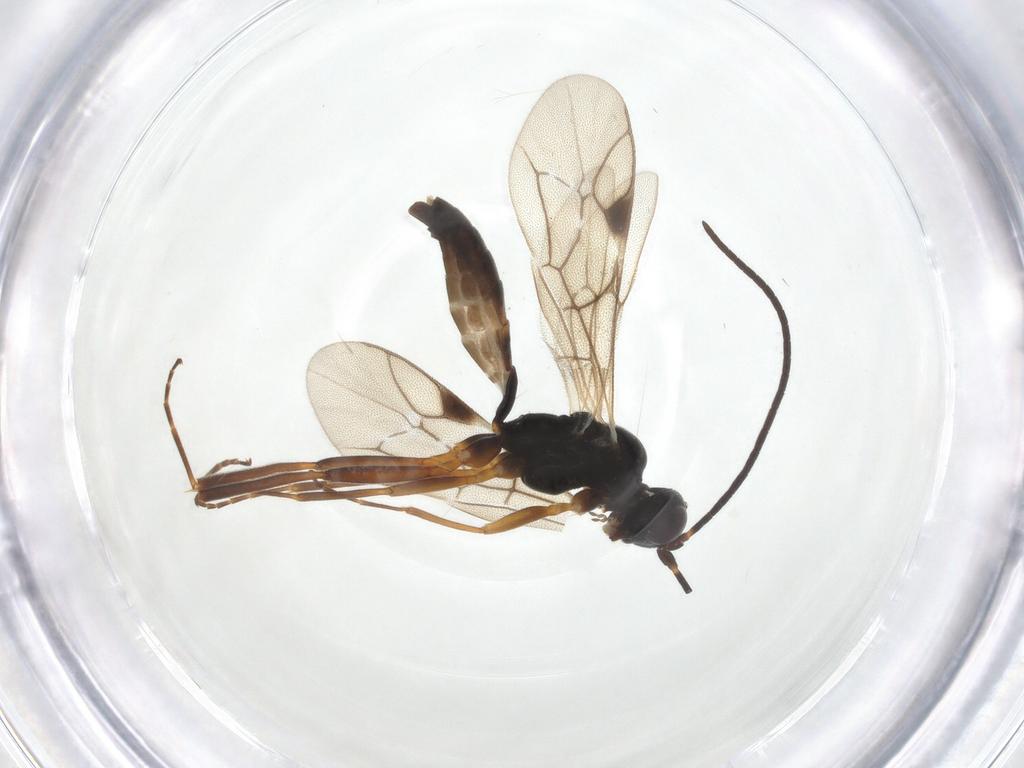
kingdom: Animalia
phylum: Arthropoda
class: Insecta
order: Hymenoptera
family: Ichneumonidae
